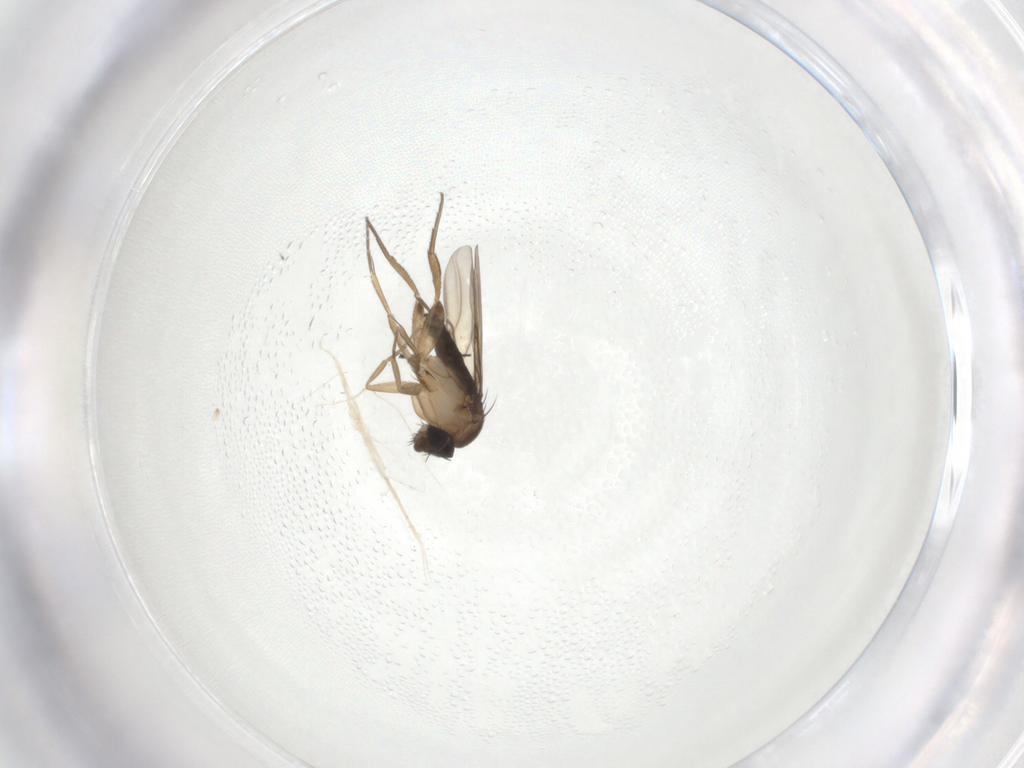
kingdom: Animalia
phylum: Arthropoda
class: Insecta
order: Diptera
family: Phoridae
